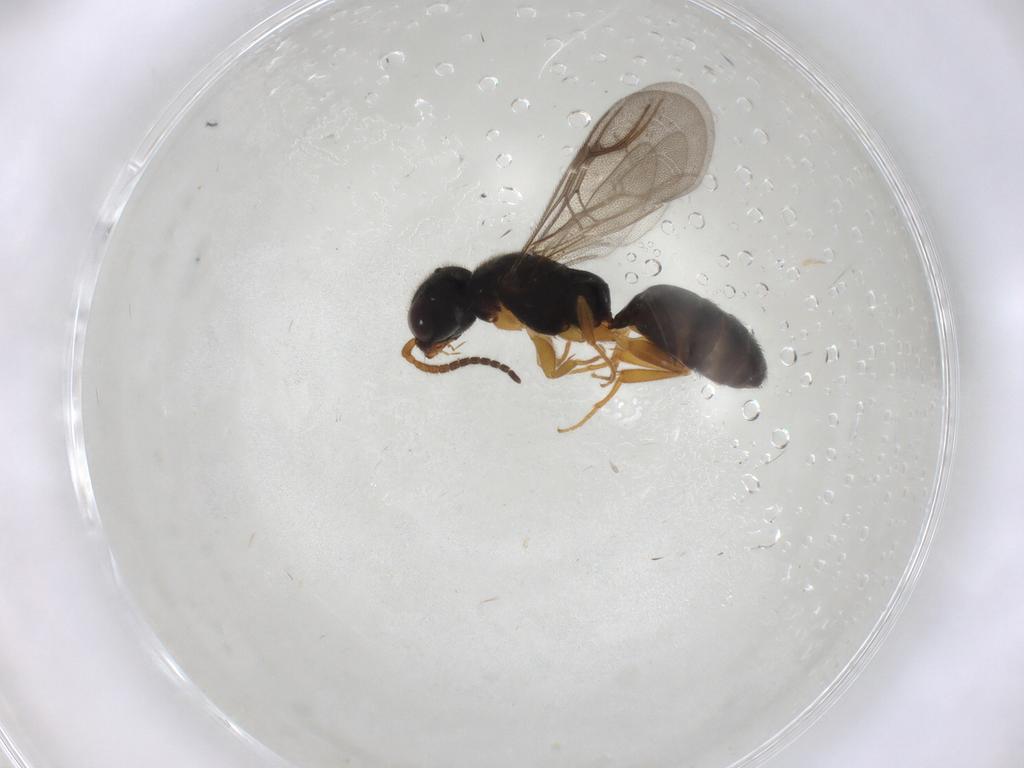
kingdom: Animalia
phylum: Arthropoda
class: Insecta
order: Hymenoptera
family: Bethylidae
